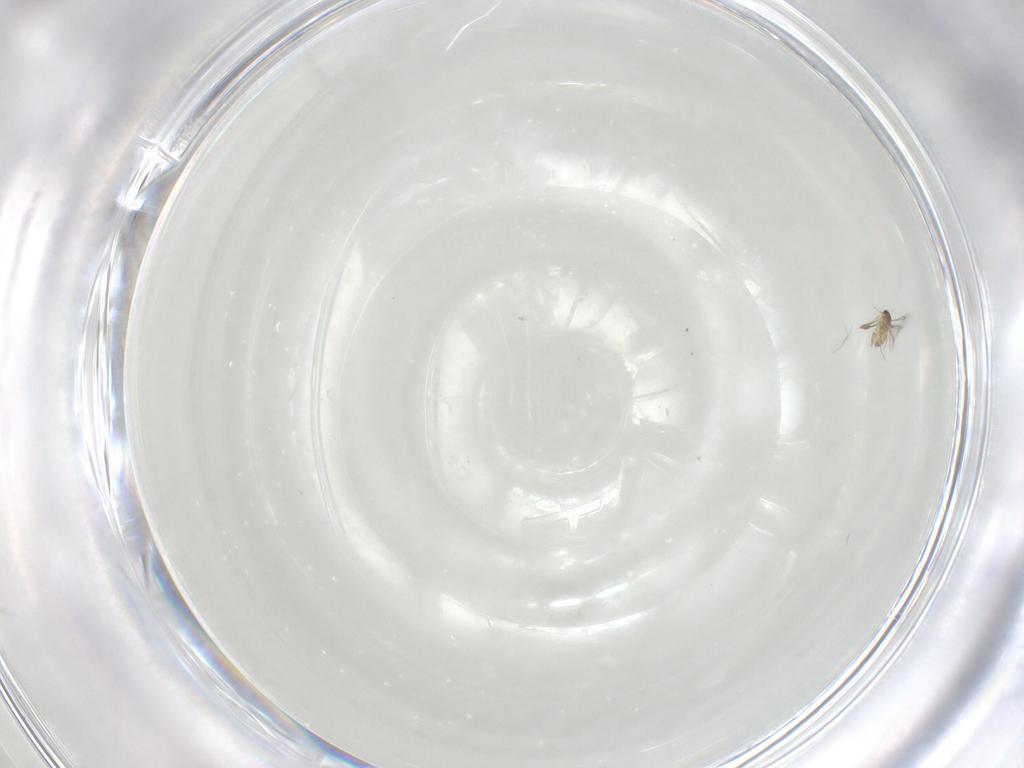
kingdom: Animalia
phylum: Arthropoda
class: Insecta
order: Hymenoptera
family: Mymaridae
